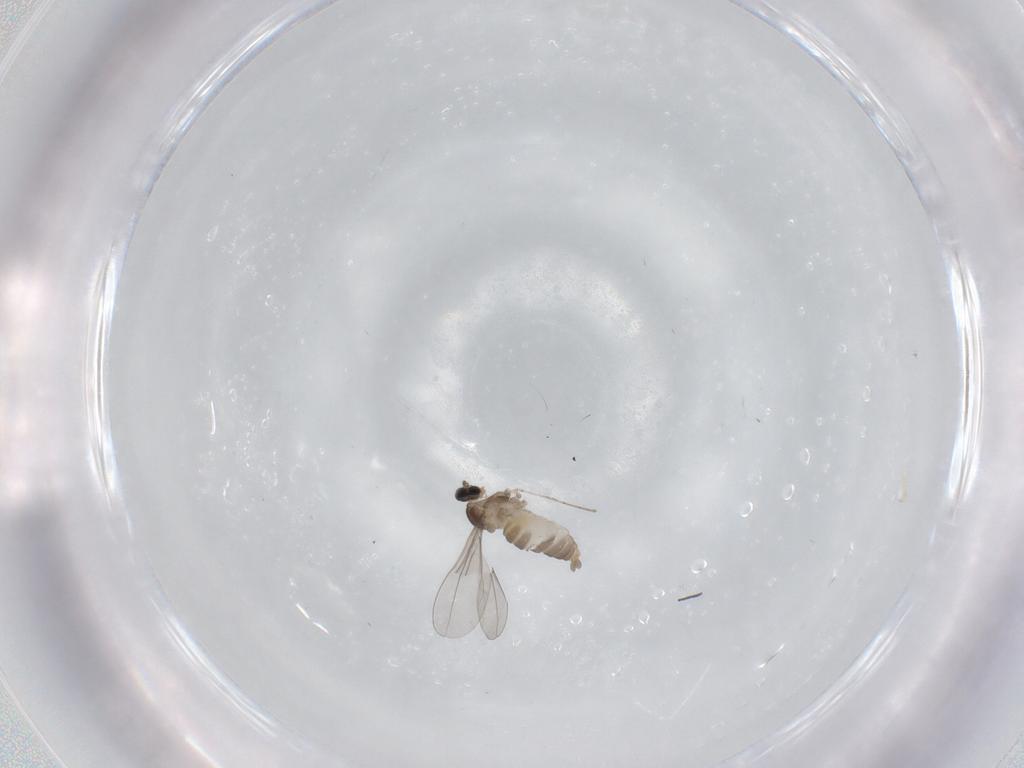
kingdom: Animalia
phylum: Arthropoda
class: Insecta
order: Diptera
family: Cecidomyiidae
